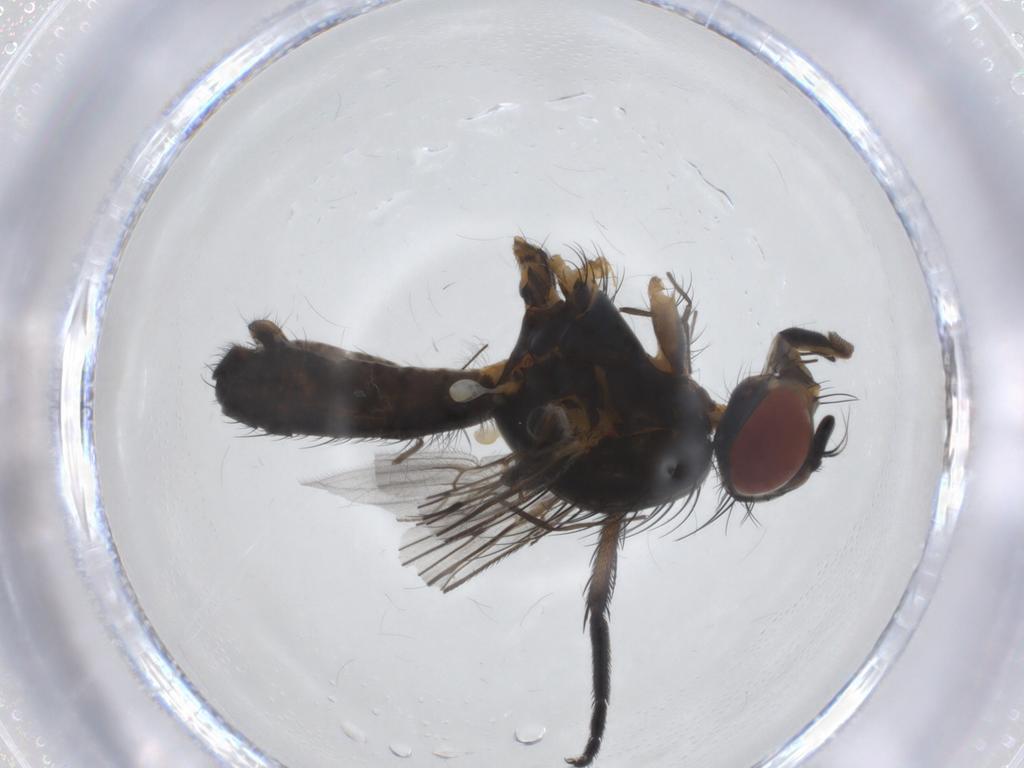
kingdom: Animalia
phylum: Arthropoda
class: Insecta
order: Diptera
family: Anthomyiidae
